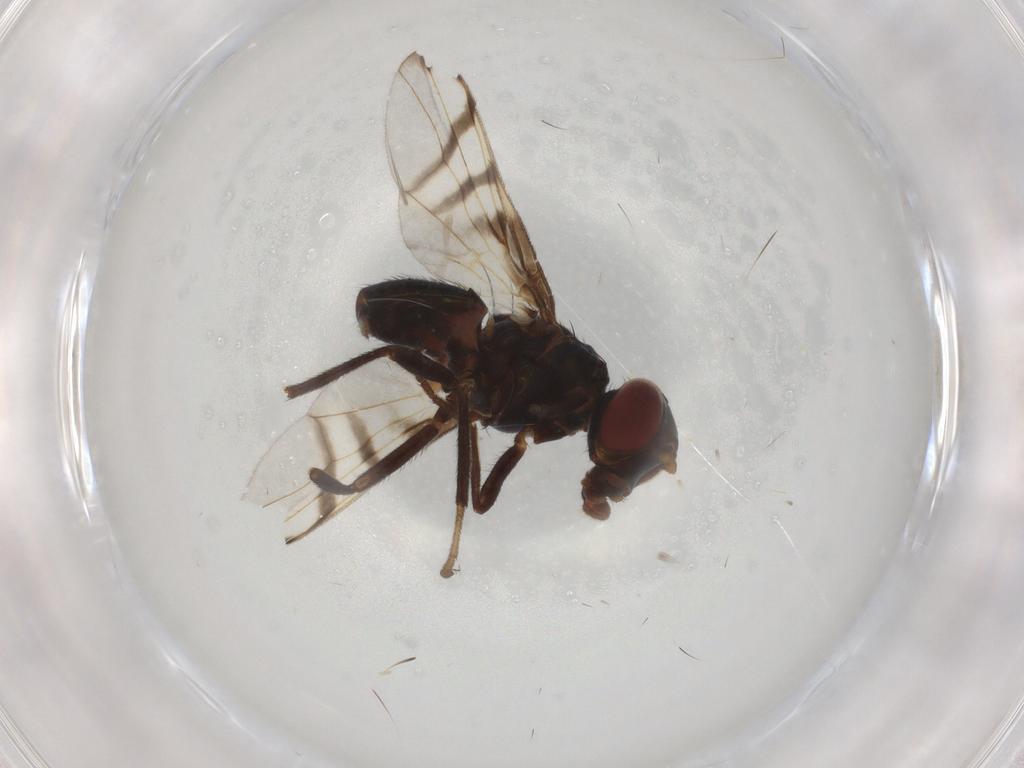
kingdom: Animalia
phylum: Arthropoda
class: Insecta
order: Diptera
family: Platystomatidae
